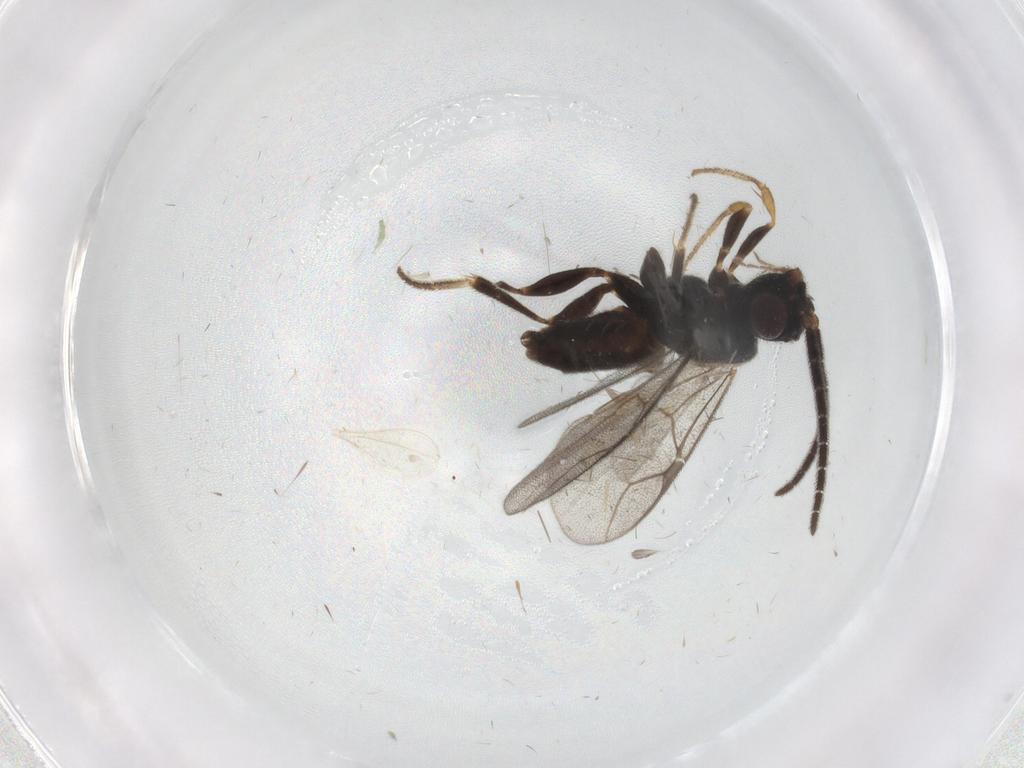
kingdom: Animalia
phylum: Arthropoda
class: Insecta
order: Hymenoptera
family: Dryinidae
